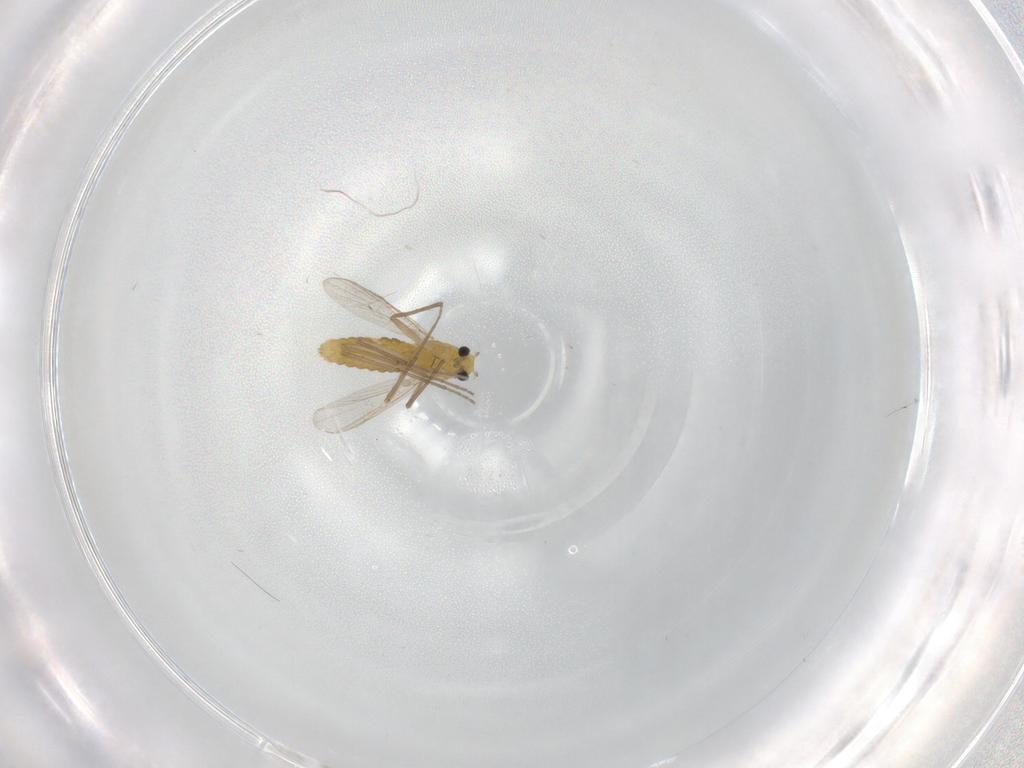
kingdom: Animalia
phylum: Arthropoda
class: Insecta
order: Diptera
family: Chironomidae
